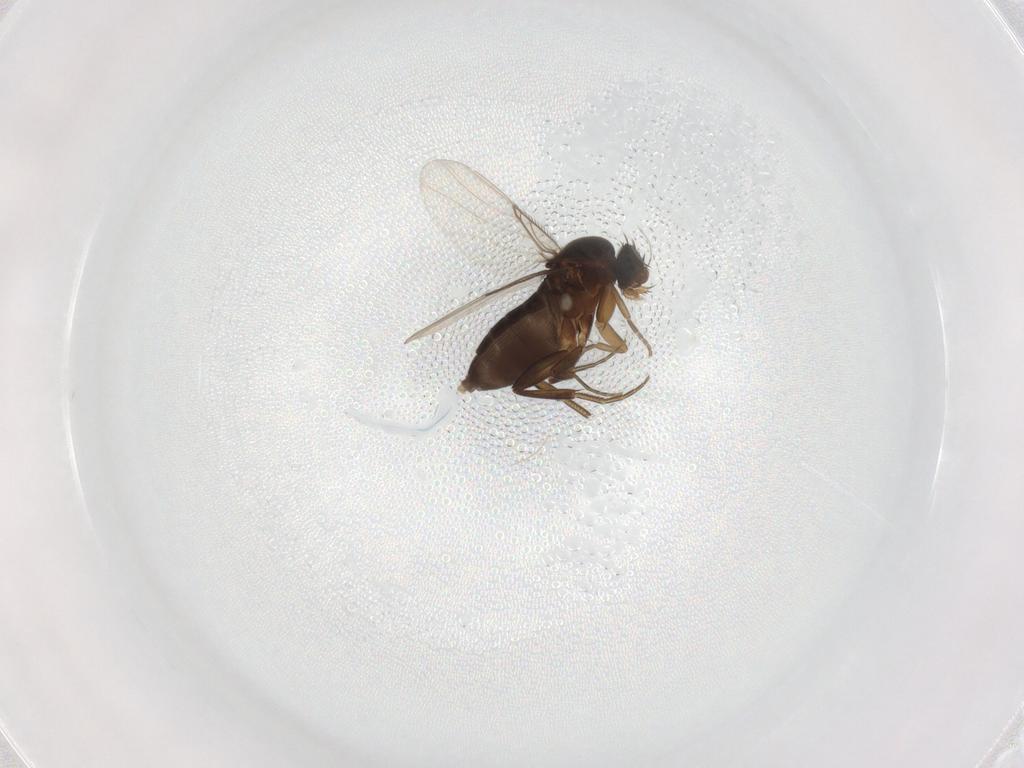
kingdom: Animalia
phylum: Arthropoda
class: Insecta
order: Diptera
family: Phoridae
